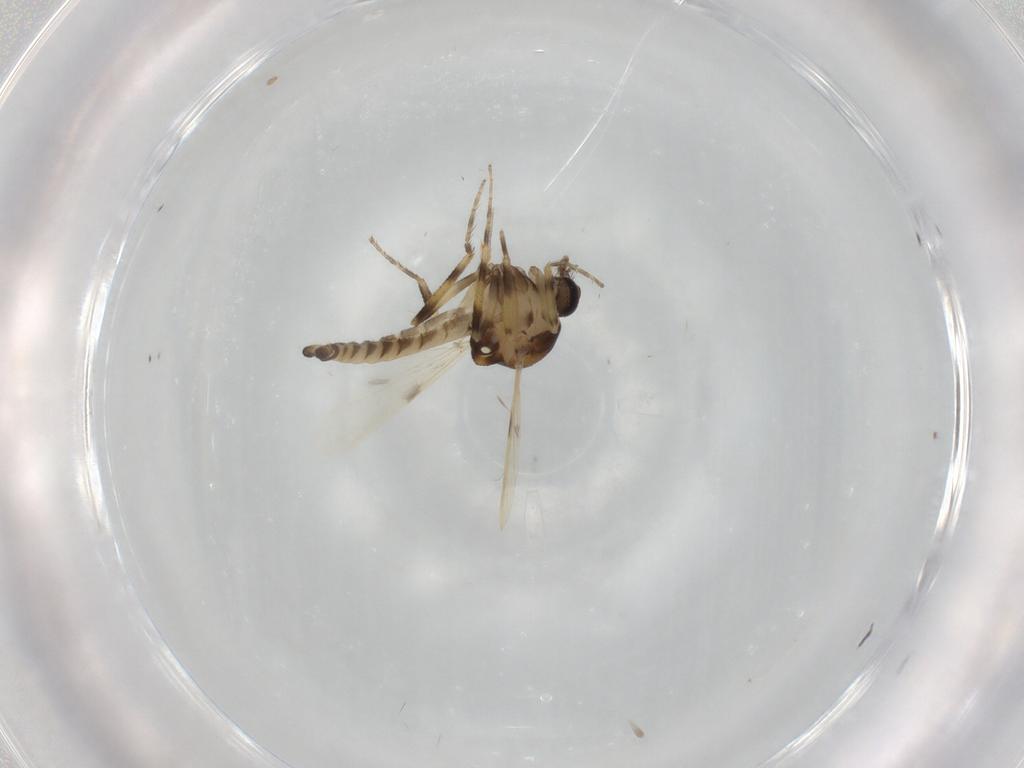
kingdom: Animalia
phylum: Arthropoda
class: Insecta
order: Diptera
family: Ceratopogonidae
